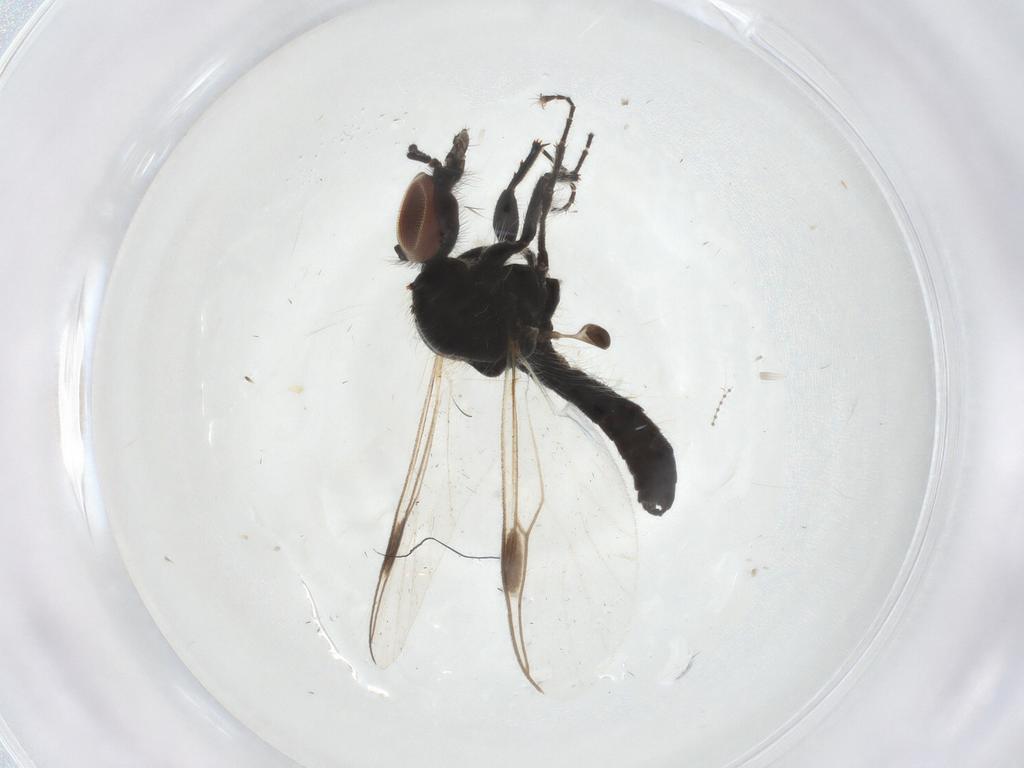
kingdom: Animalia
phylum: Arthropoda
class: Insecta
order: Diptera
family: Bibionidae
